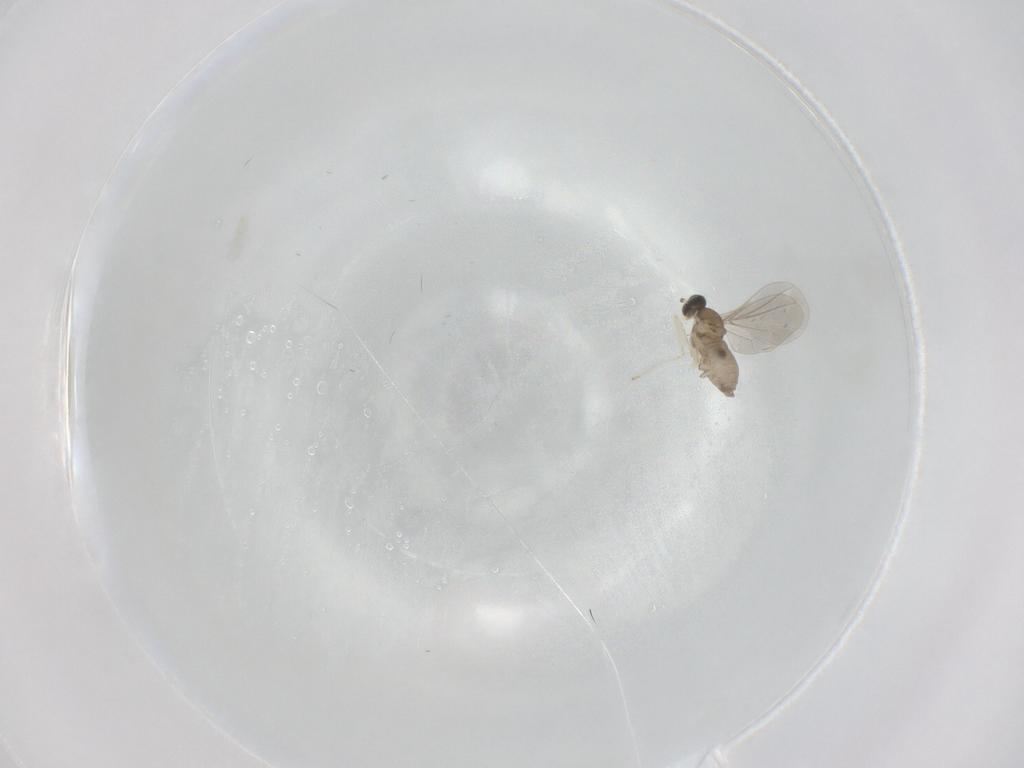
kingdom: Animalia
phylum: Arthropoda
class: Insecta
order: Diptera
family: Cecidomyiidae
